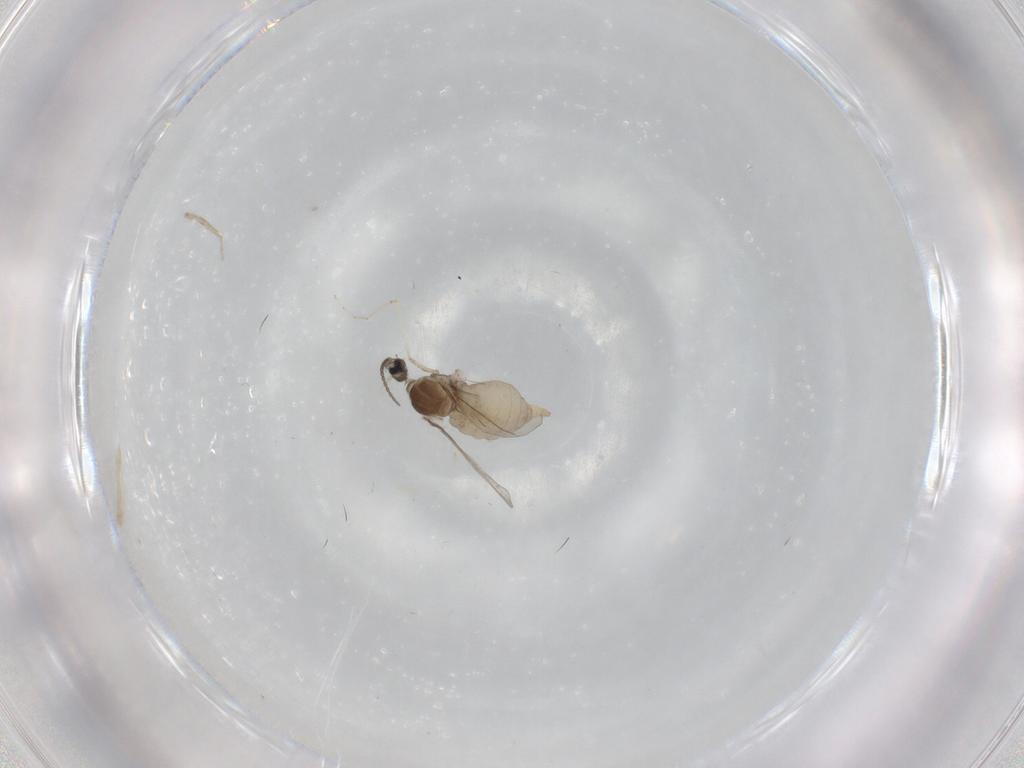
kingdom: Animalia
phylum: Arthropoda
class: Insecta
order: Diptera
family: Cecidomyiidae
